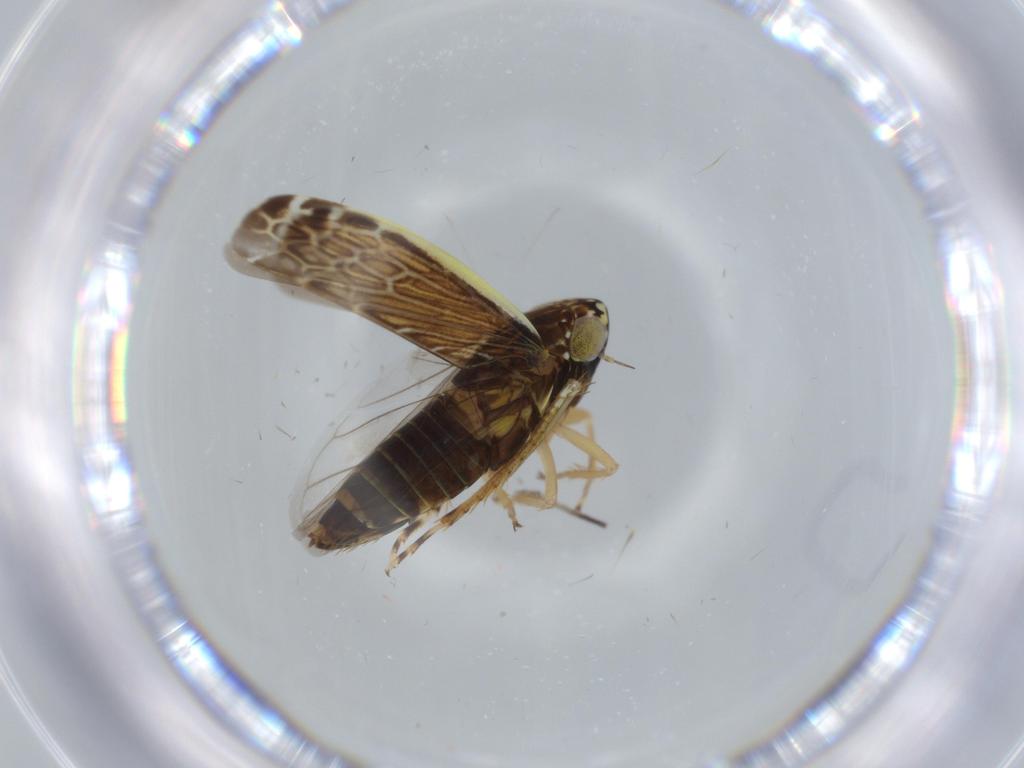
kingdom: Animalia
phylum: Arthropoda
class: Insecta
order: Hemiptera
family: Cicadellidae
